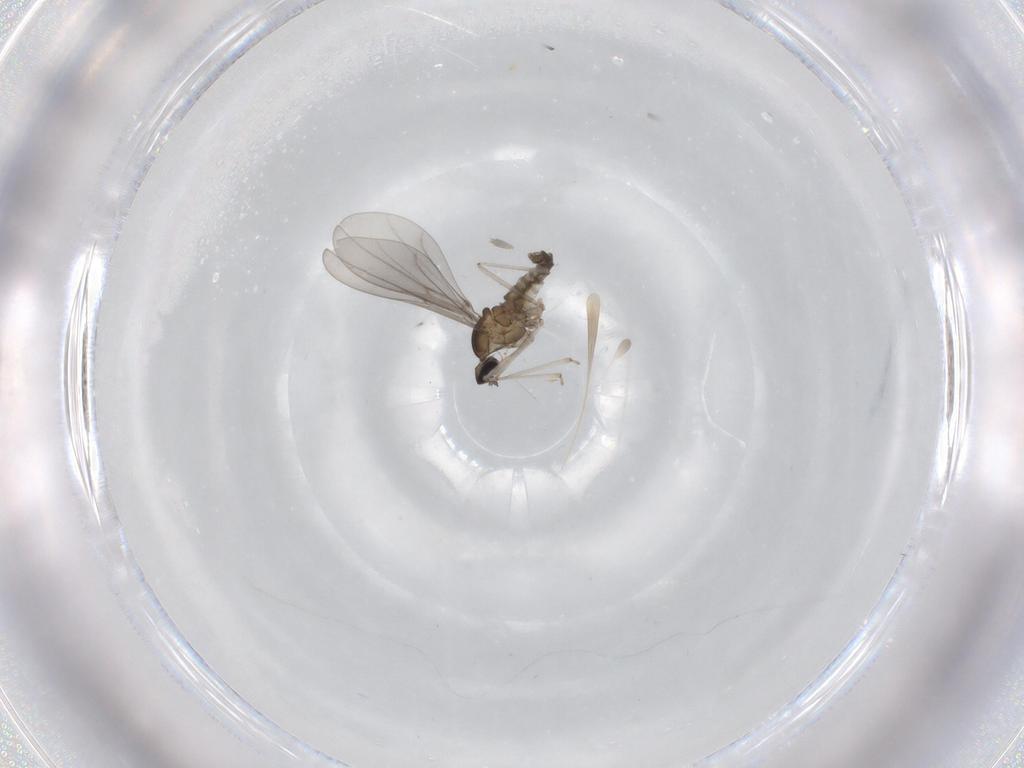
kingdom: Animalia
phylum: Arthropoda
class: Insecta
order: Diptera
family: Cecidomyiidae
